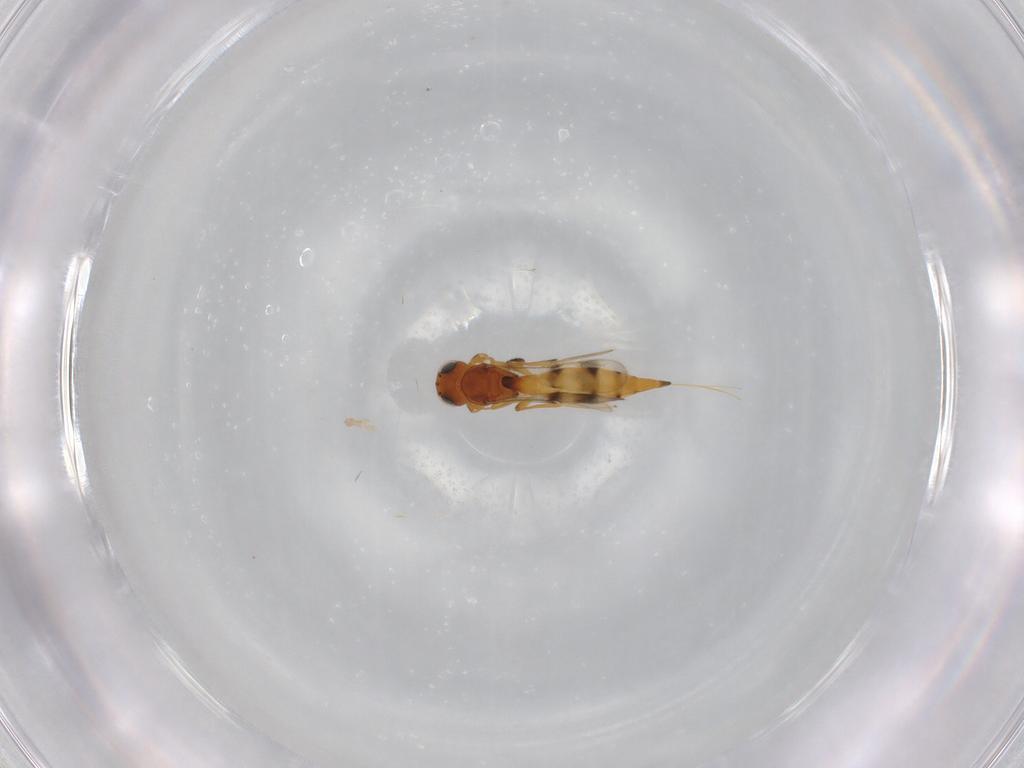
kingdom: Animalia
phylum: Arthropoda
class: Insecta
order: Hymenoptera
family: Scelionidae
